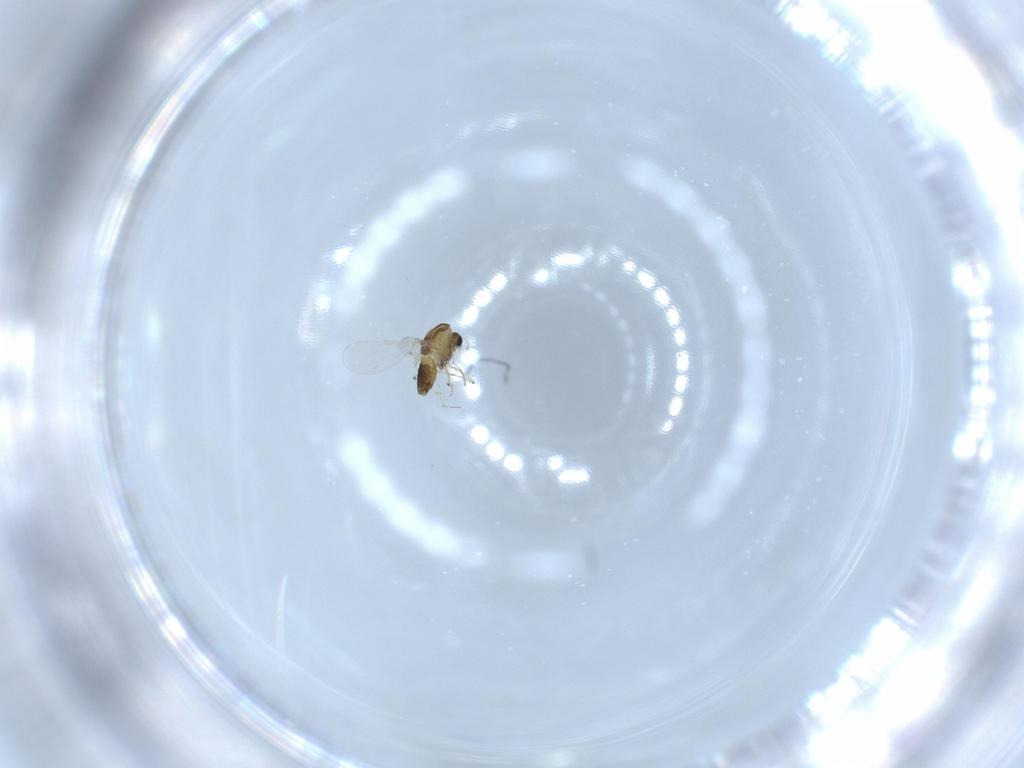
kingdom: Animalia
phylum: Arthropoda
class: Insecta
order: Diptera
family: Chironomidae
